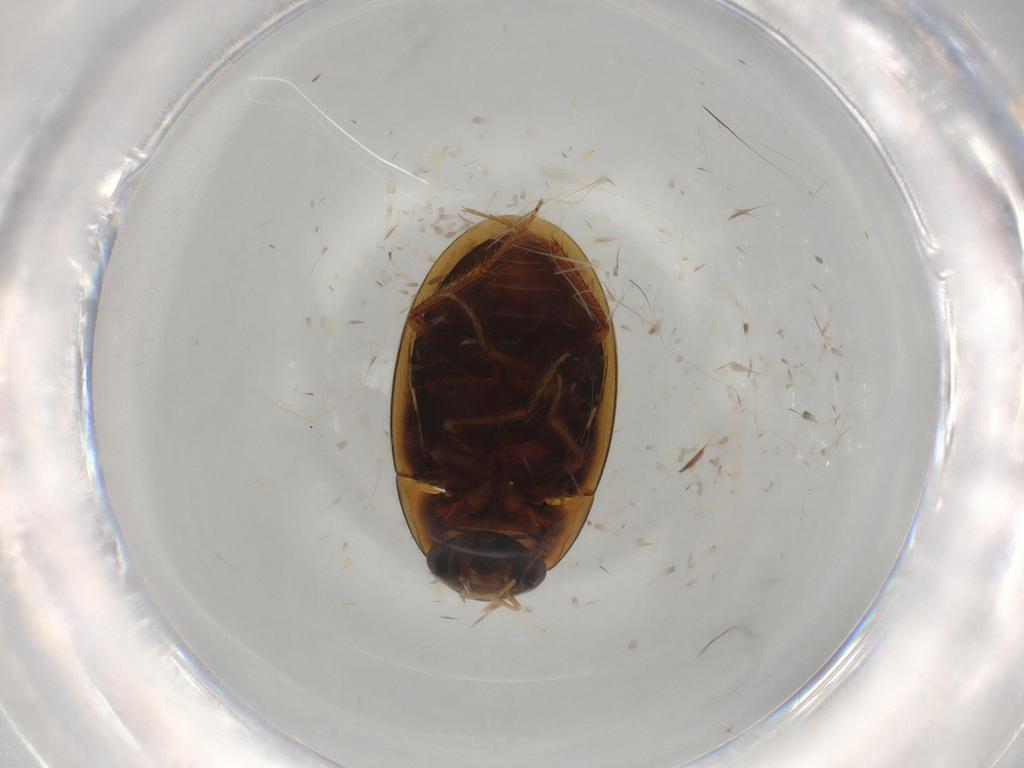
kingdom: Animalia
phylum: Arthropoda
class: Insecta
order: Coleoptera
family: Hydrophilidae
